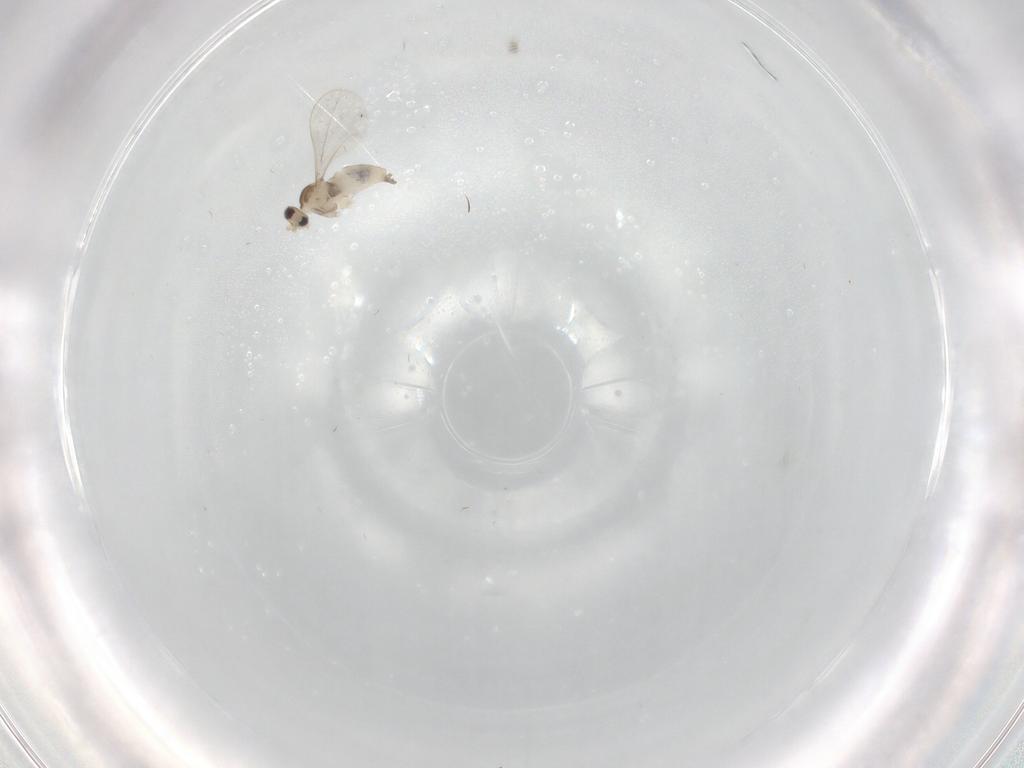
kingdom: Animalia
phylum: Arthropoda
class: Insecta
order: Diptera
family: Cecidomyiidae
